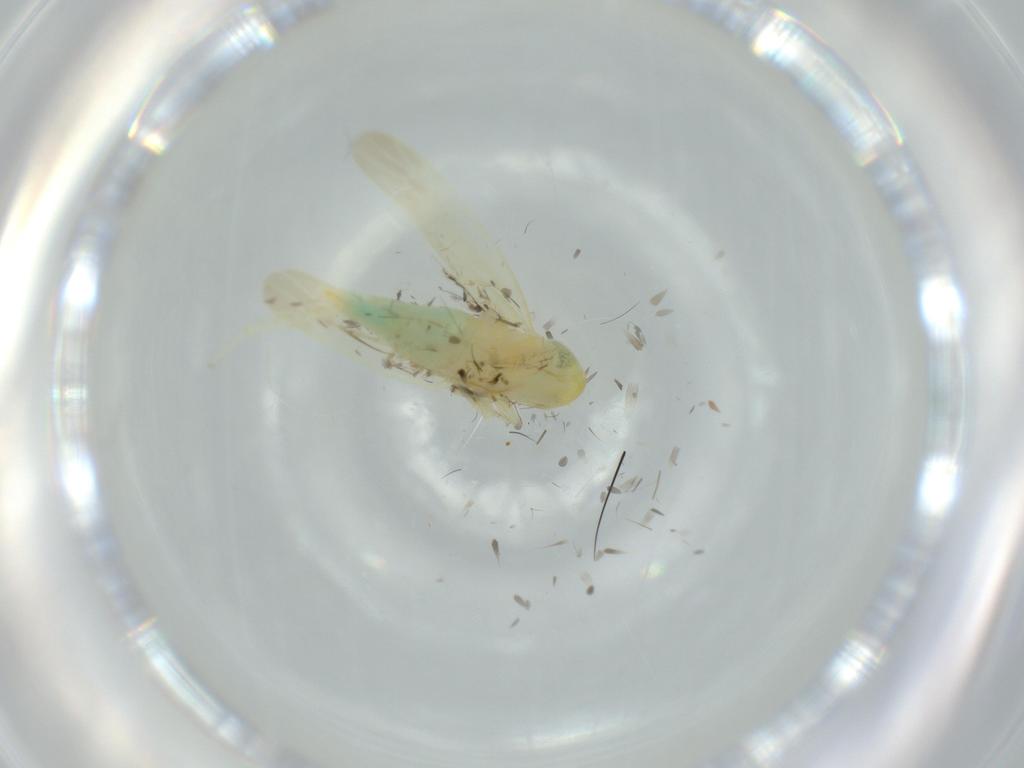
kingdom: Animalia
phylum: Arthropoda
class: Insecta
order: Hemiptera
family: Cicadellidae
